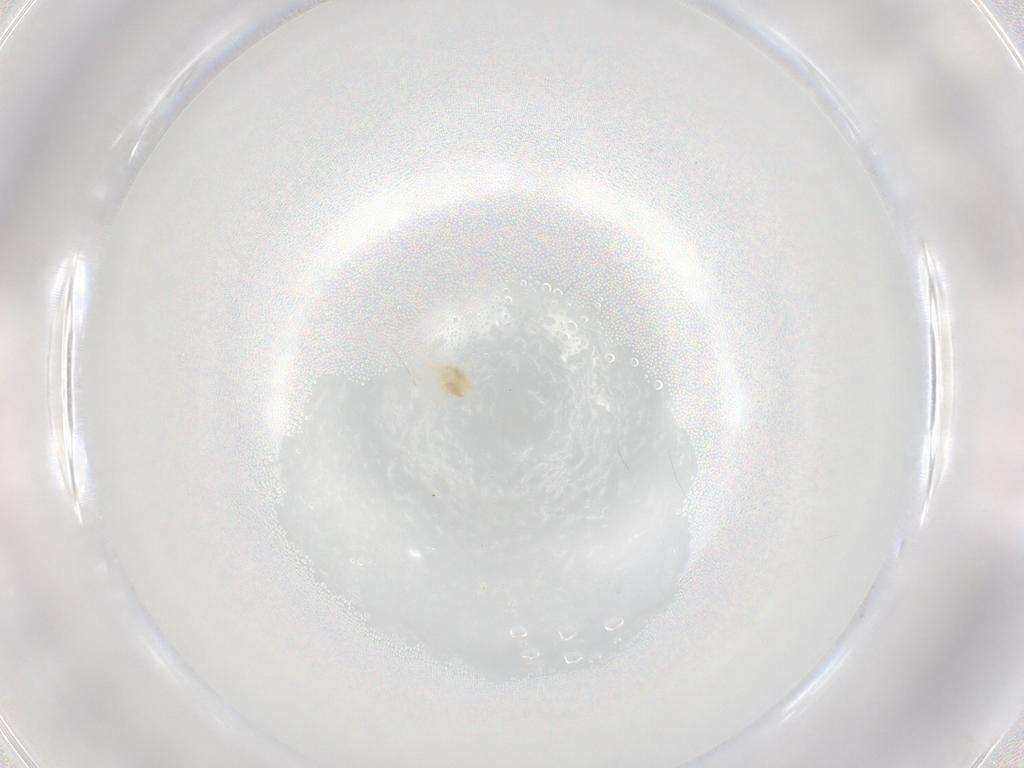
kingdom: Animalia
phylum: Arthropoda
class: Arachnida
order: Trombidiformes
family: Eupodidae
